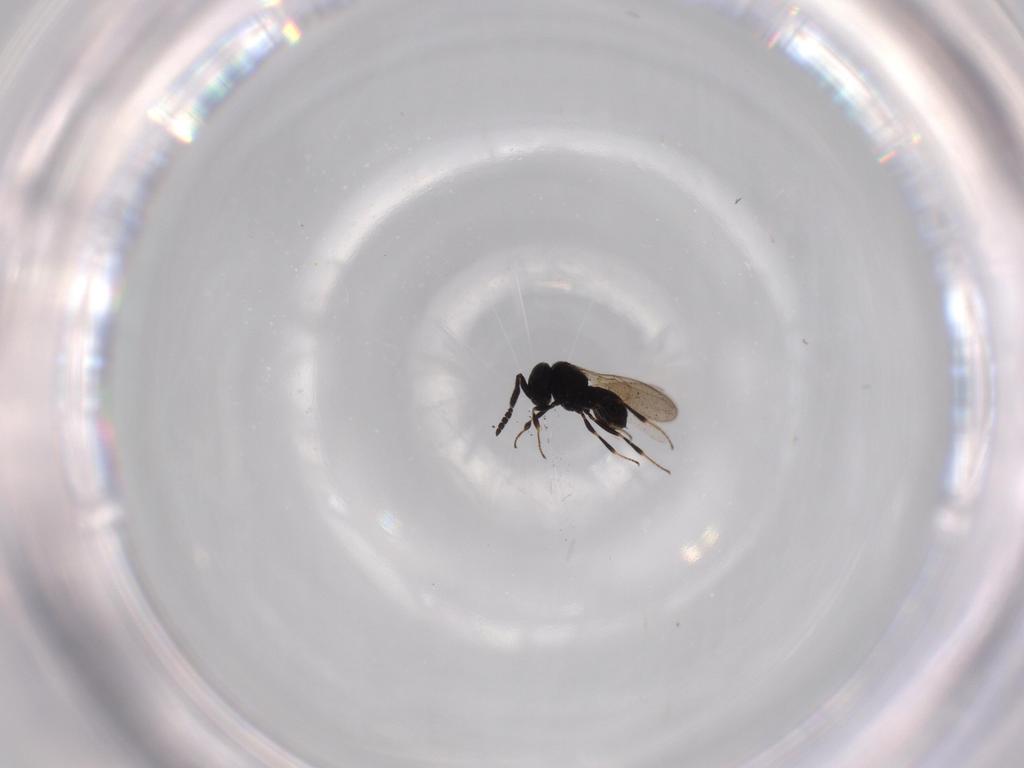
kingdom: Animalia
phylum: Arthropoda
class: Insecta
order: Hymenoptera
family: Scelionidae
